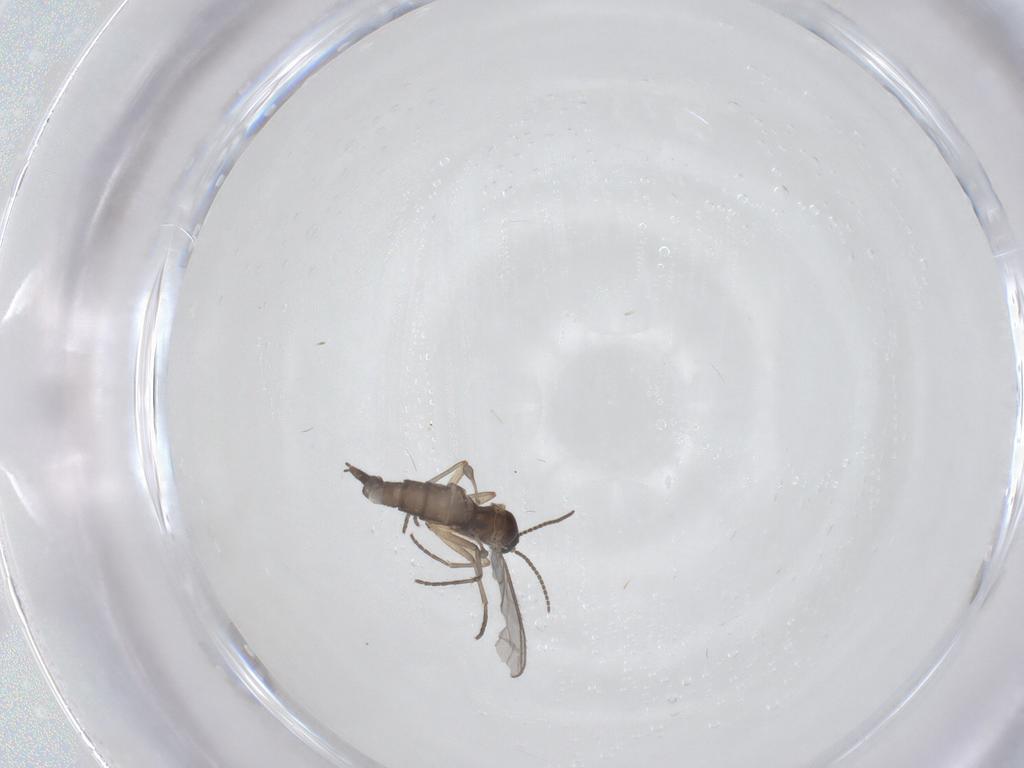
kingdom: Animalia
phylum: Arthropoda
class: Insecta
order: Diptera
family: Sciaridae
